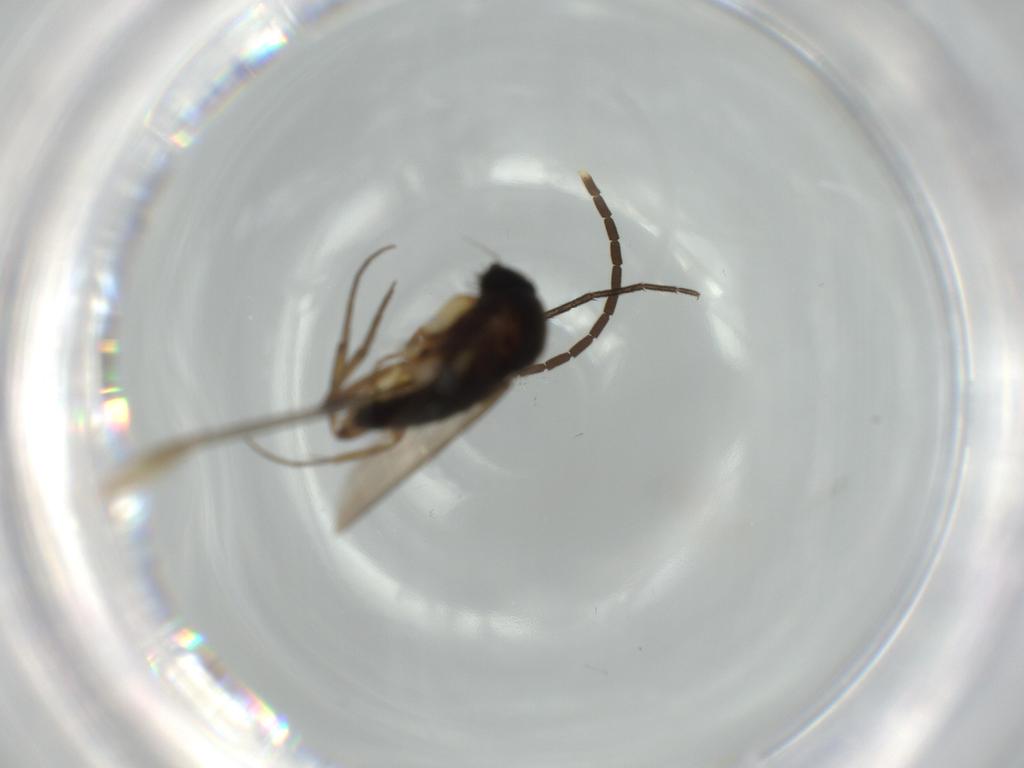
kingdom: Animalia
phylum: Arthropoda
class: Insecta
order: Diptera
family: Phoridae
